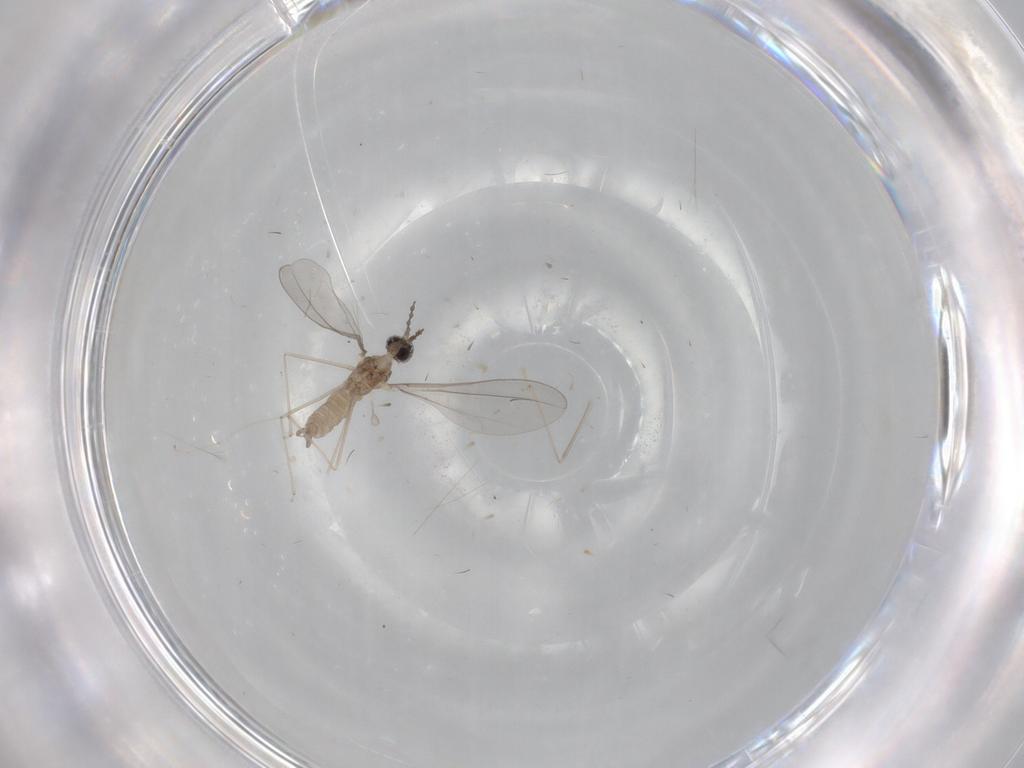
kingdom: Animalia
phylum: Arthropoda
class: Insecta
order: Diptera
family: Cecidomyiidae
